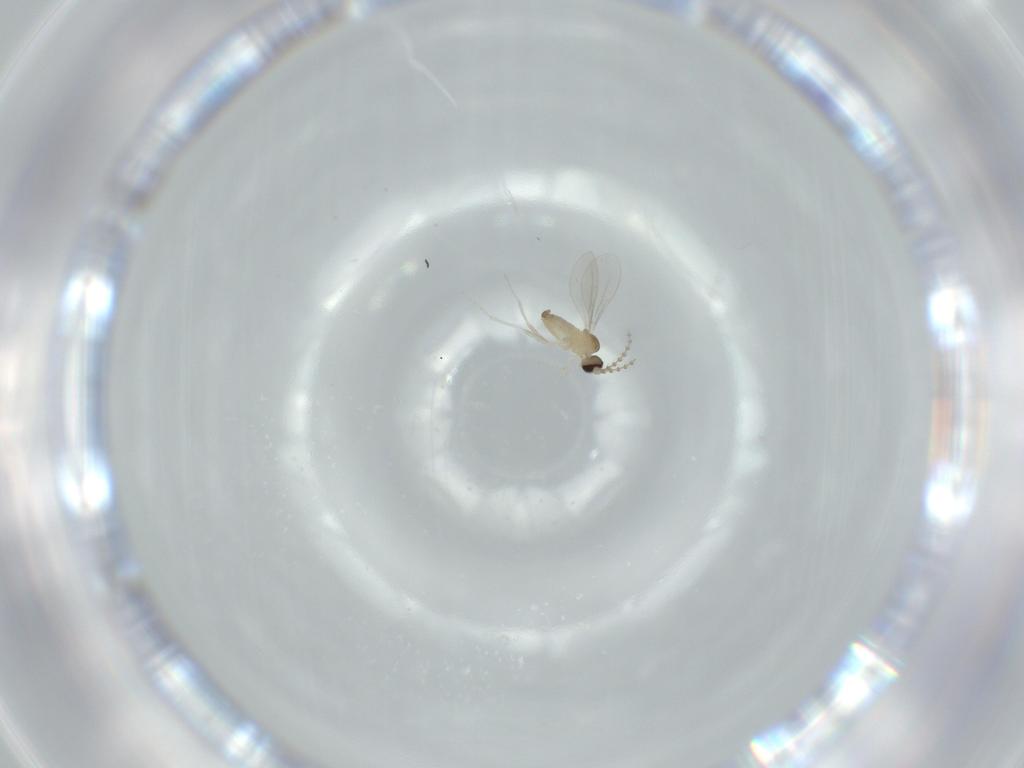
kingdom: Animalia
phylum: Arthropoda
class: Insecta
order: Diptera
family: Cecidomyiidae
